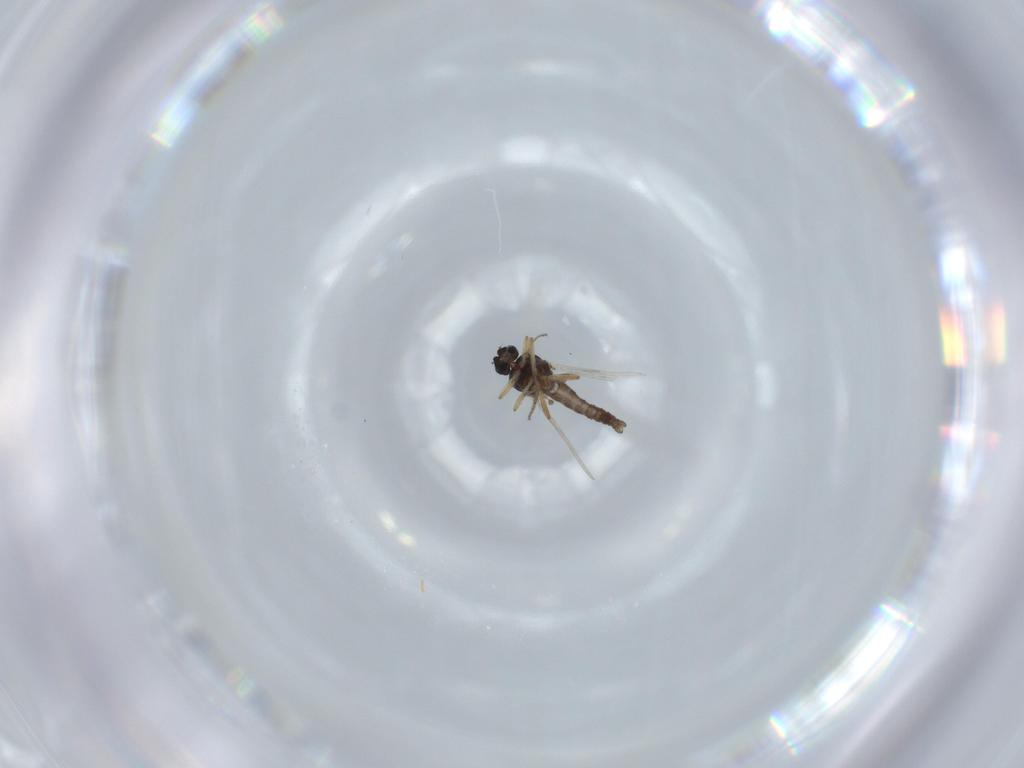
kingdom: Animalia
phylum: Arthropoda
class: Insecta
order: Diptera
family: Ceratopogonidae
